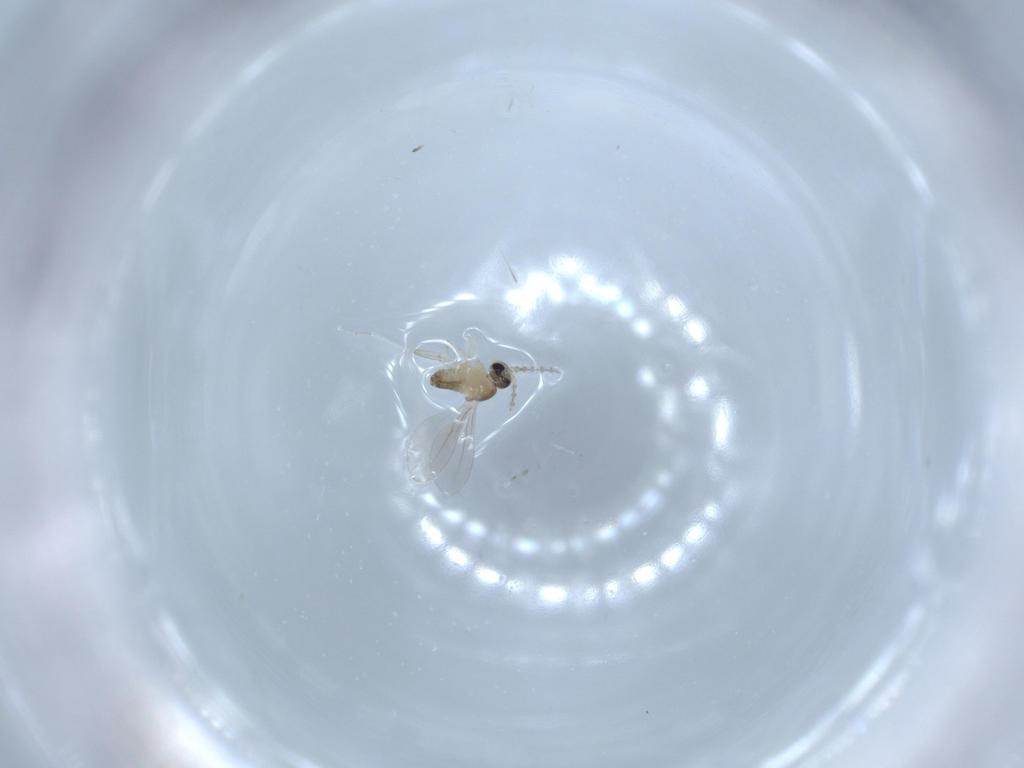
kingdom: Animalia
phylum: Arthropoda
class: Insecta
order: Diptera
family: Cecidomyiidae
